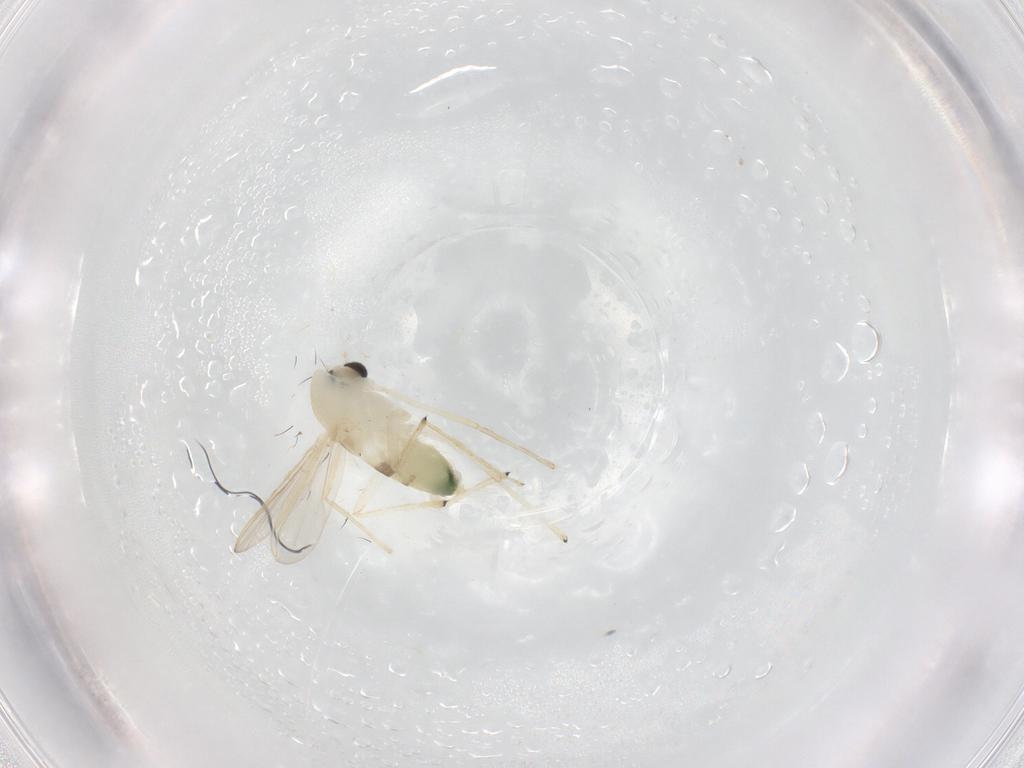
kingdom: Animalia
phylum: Arthropoda
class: Insecta
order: Diptera
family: Chironomidae
